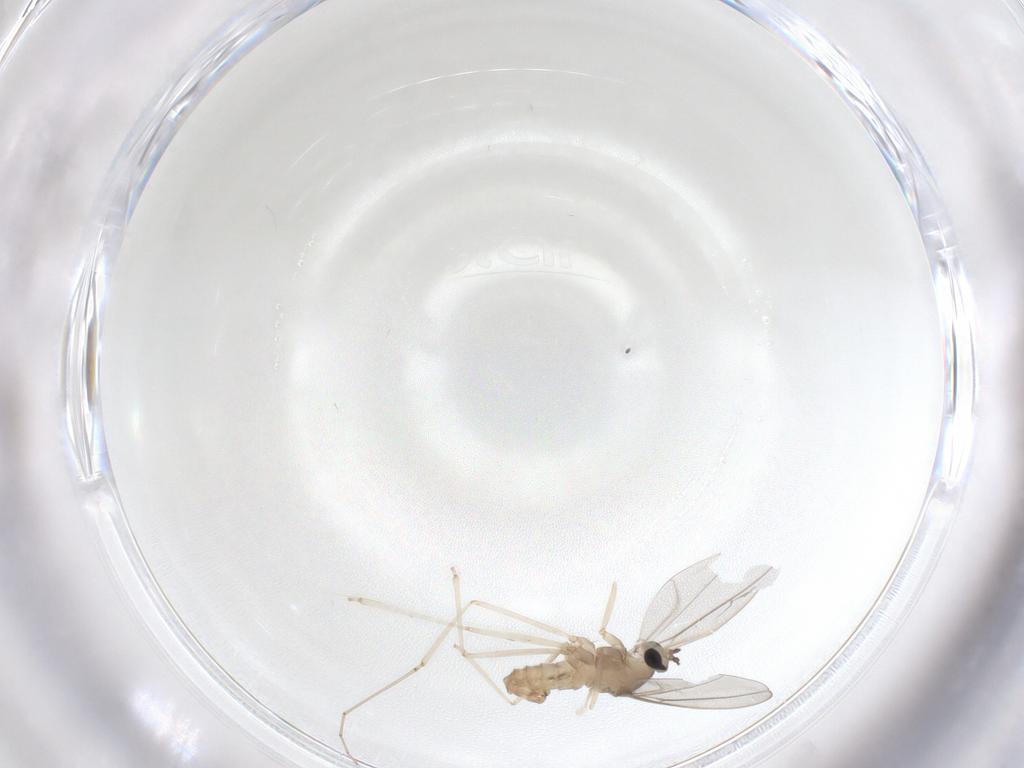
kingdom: Animalia
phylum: Arthropoda
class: Insecta
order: Diptera
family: Cecidomyiidae
